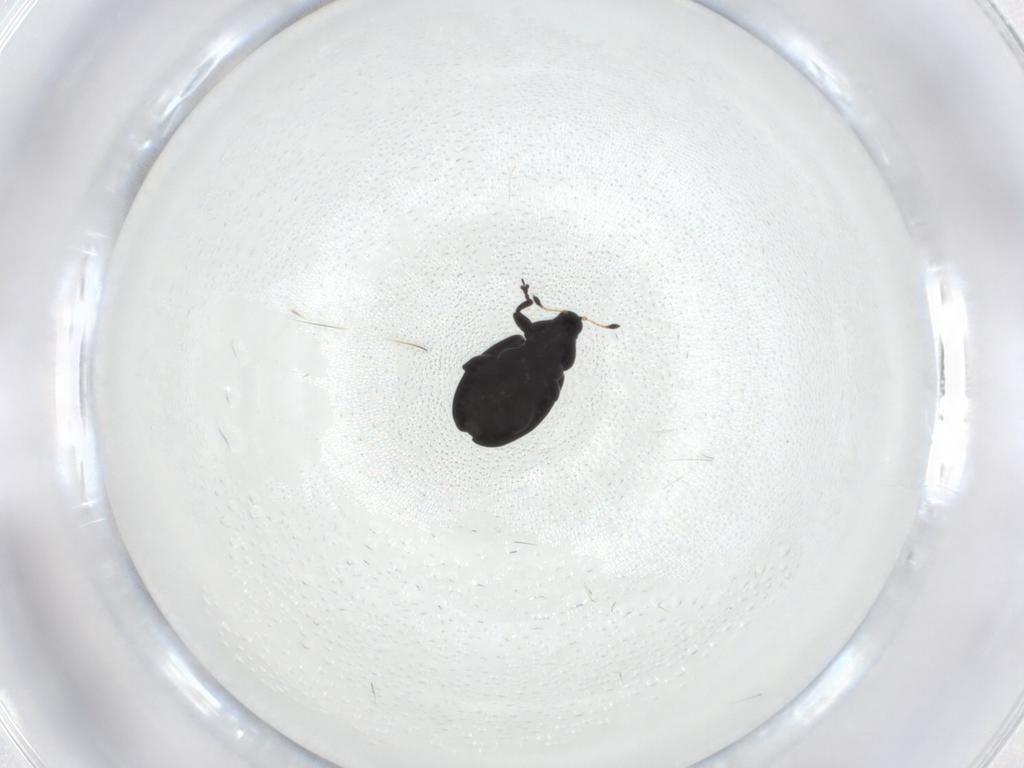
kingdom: Animalia
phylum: Arthropoda
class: Insecta
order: Coleoptera
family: Curculionidae
